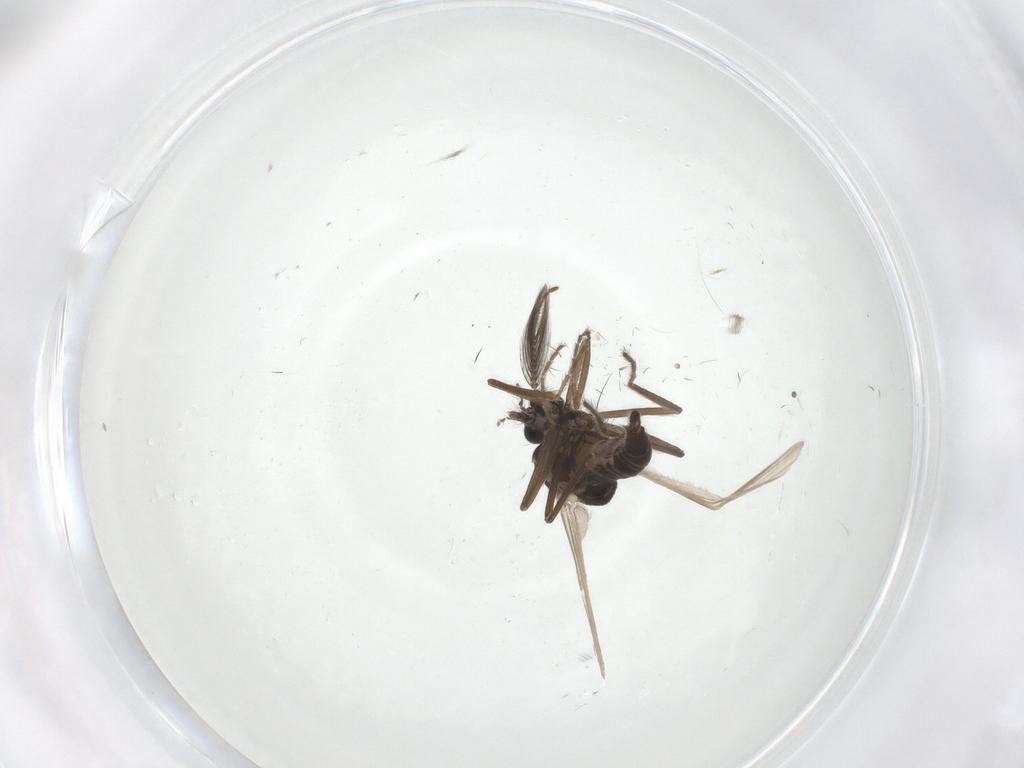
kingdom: Animalia
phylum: Arthropoda
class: Insecta
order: Diptera
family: Ceratopogonidae
